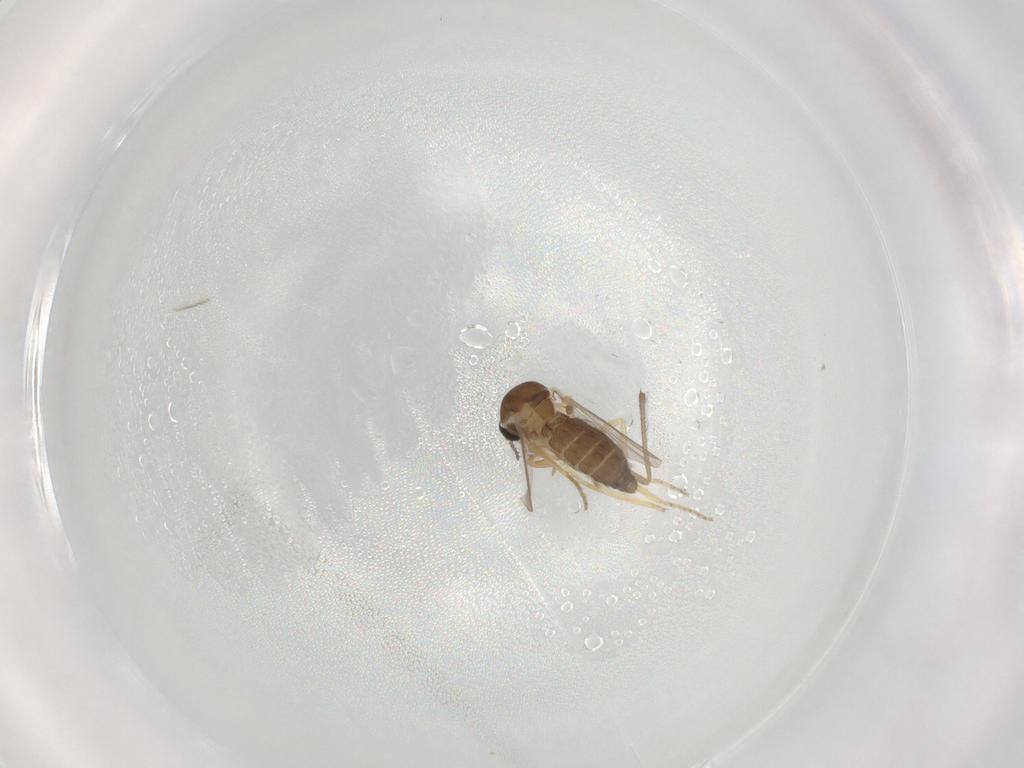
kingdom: Animalia
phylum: Arthropoda
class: Insecta
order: Diptera
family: Ceratopogonidae
